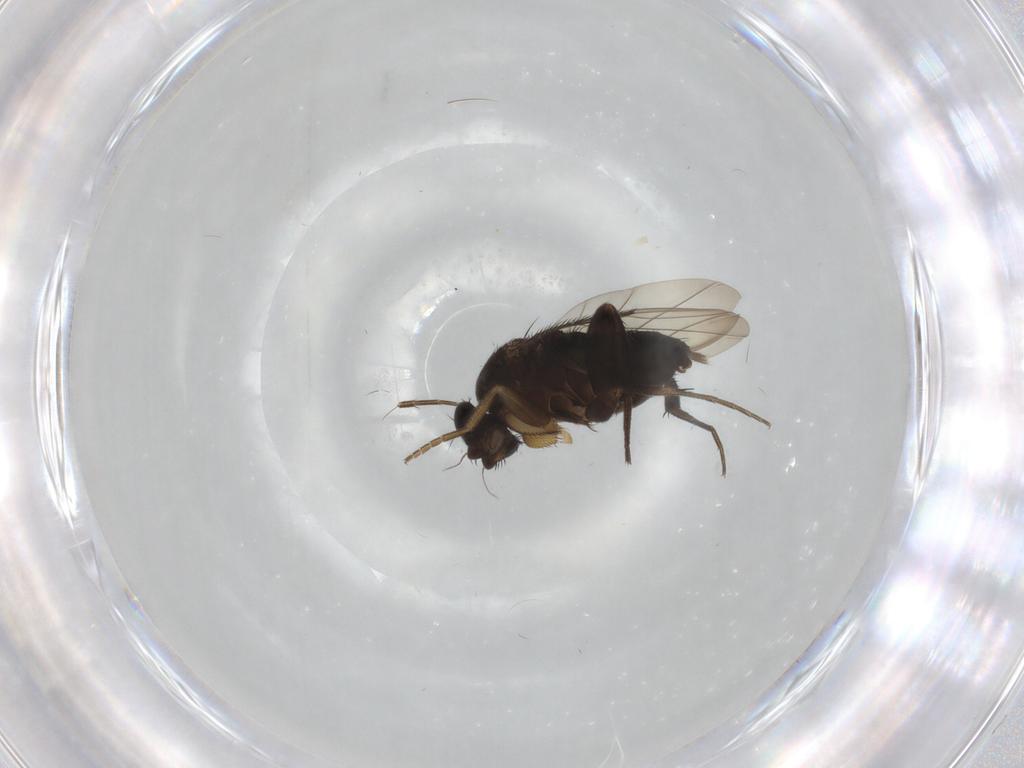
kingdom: Animalia
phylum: Arthropoda
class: Insecta
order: Diptera
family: Phoridae
